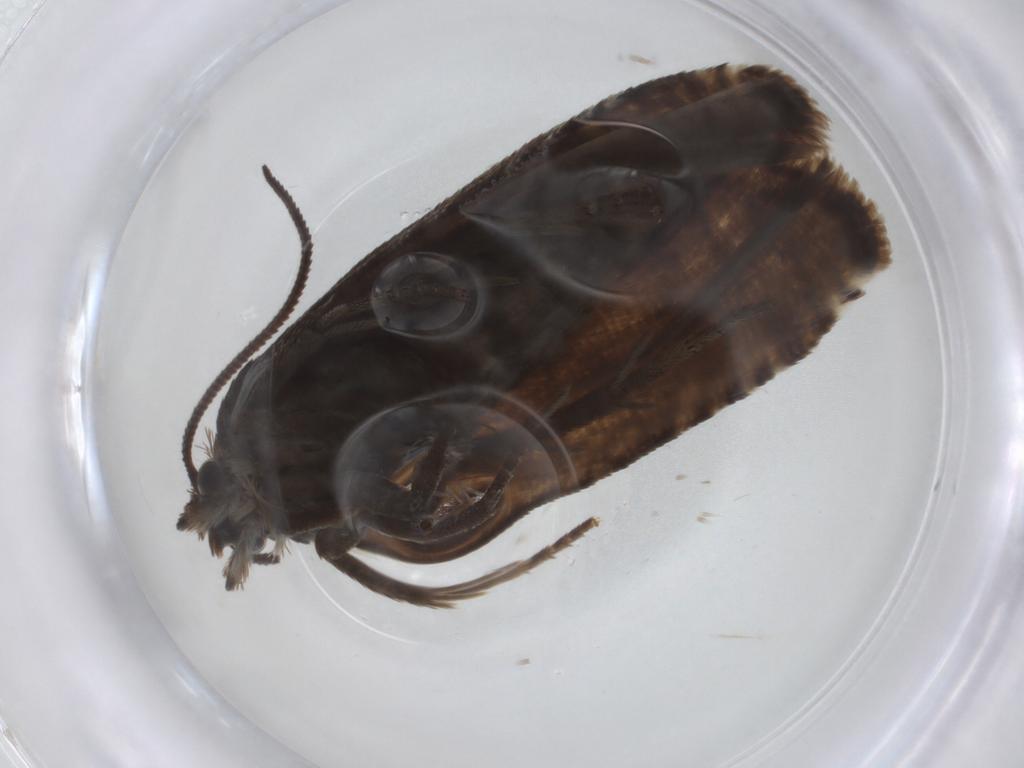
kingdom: Animalia
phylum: Arthropoda
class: Insecta
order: Lepidoptera
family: Tortricidae
